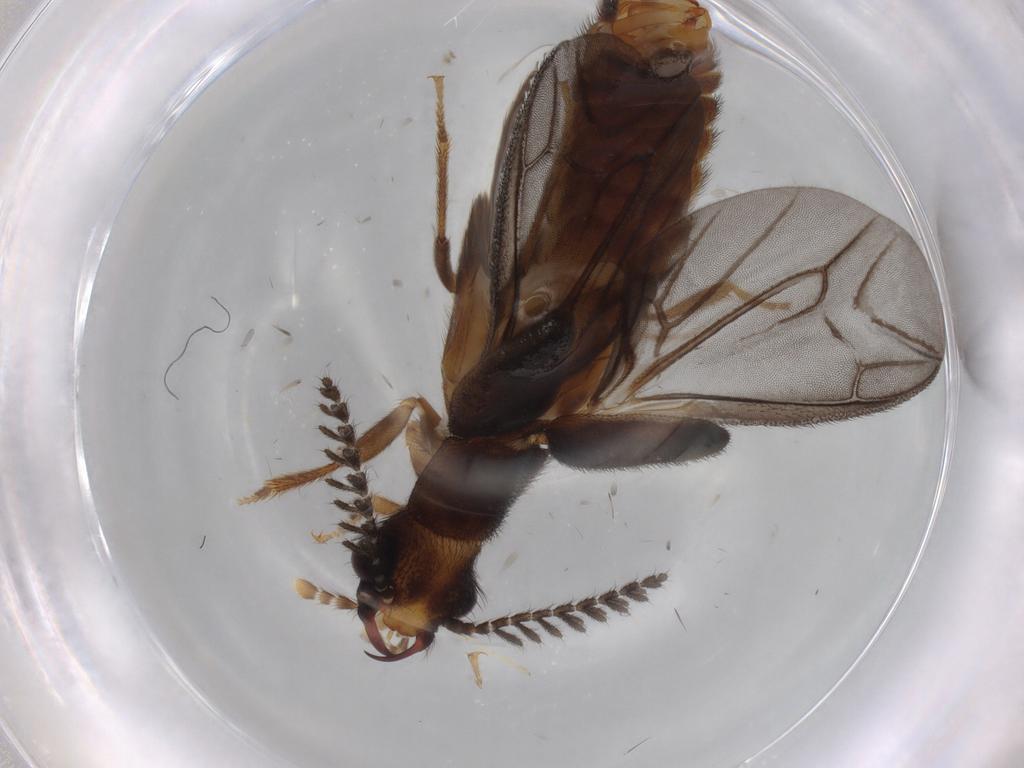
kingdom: Animalia
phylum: Arthropoda
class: Insecta
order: Coleoptera
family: Phengodidae
